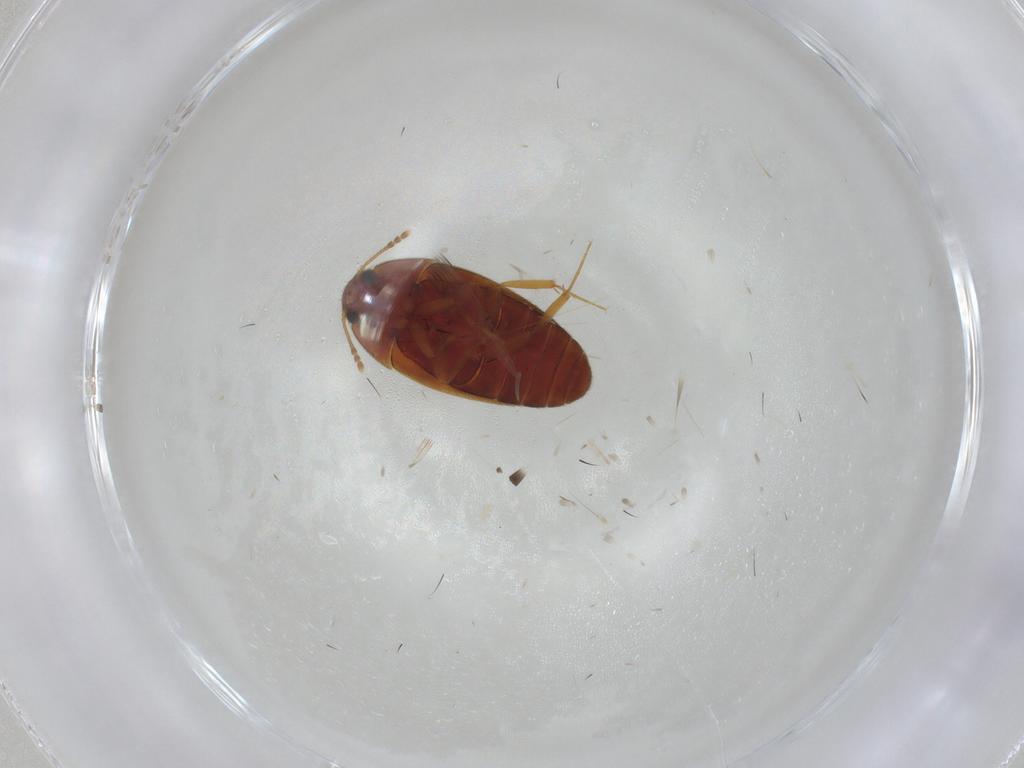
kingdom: Animalia
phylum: Arthropoda
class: Insecta
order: Coleoptera
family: Mycetophagidae
